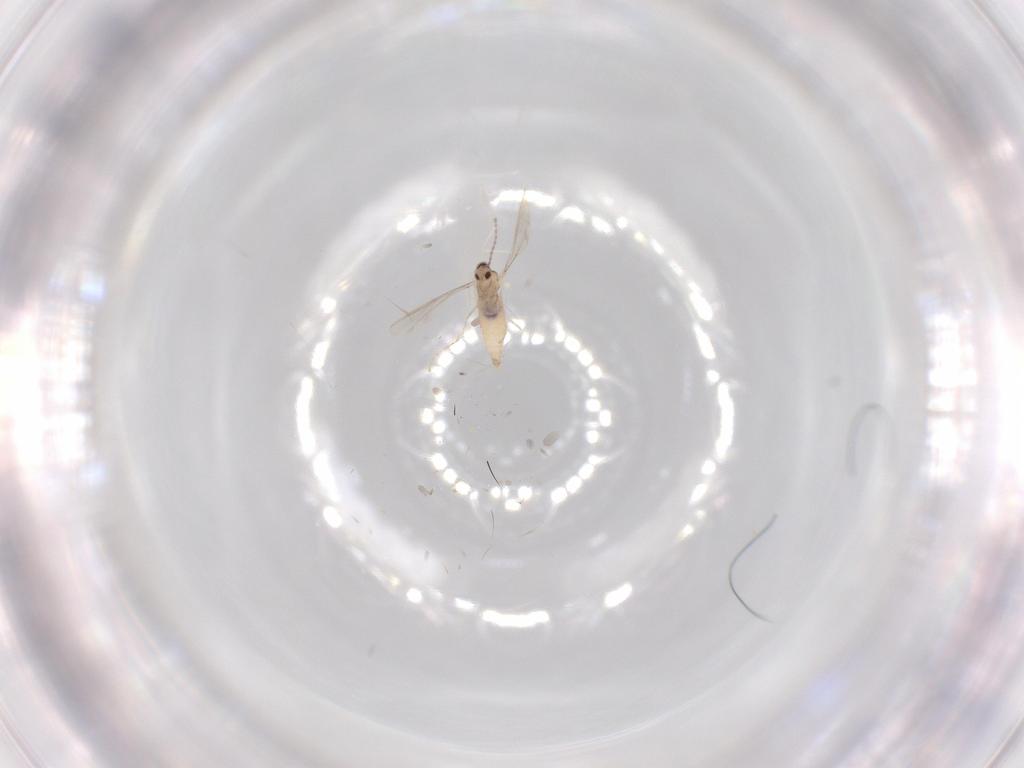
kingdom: Animalia
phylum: Arthropoda
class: Insecta
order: Diptera
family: Cecidomyiidae
